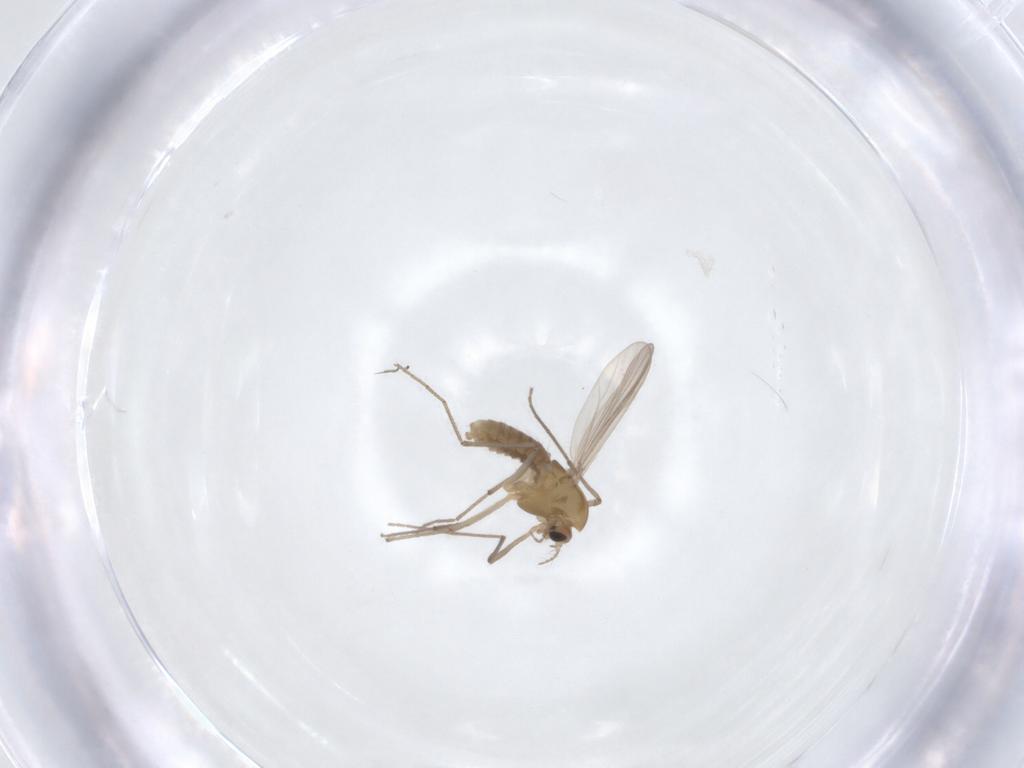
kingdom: Animalia
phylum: Arthropoda
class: Insecta
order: Diptera
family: Chironomidae
